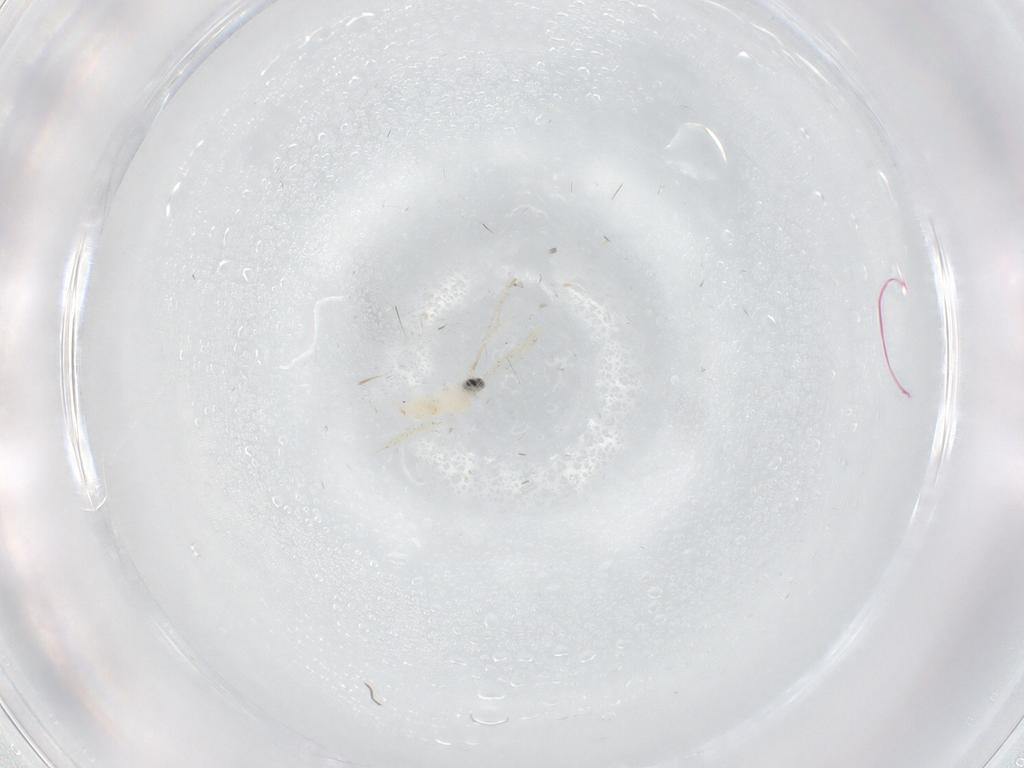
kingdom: Animalia
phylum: Arthropoda
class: Insecta
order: Diptera
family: Cecidomyiidae
